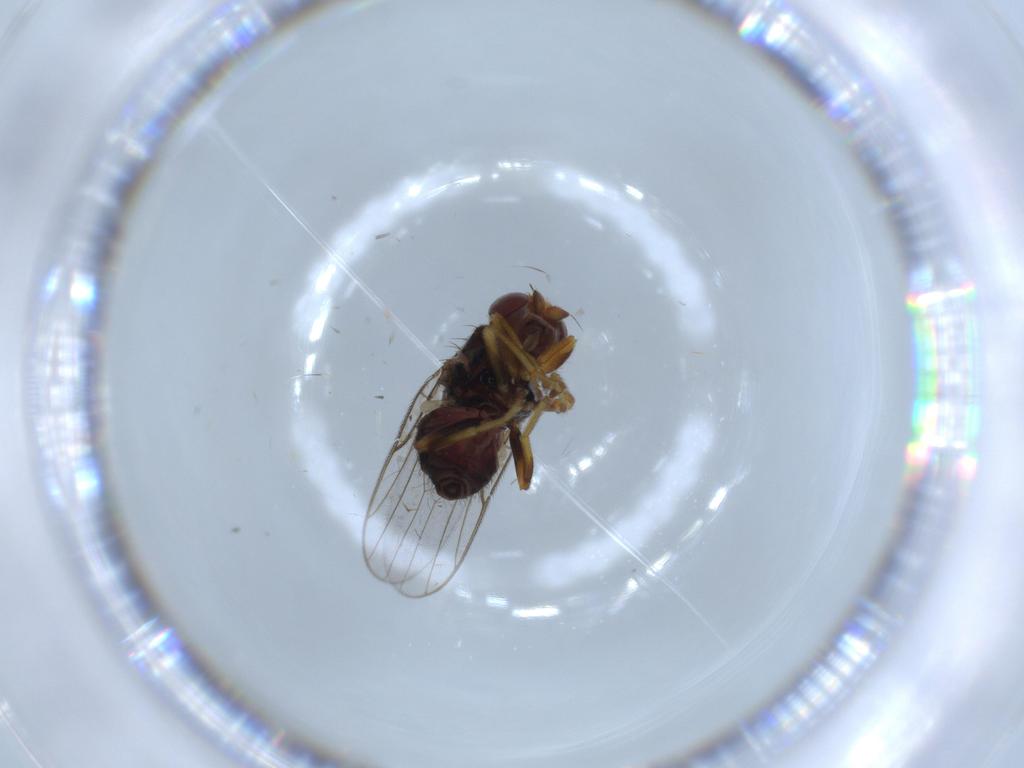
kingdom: Animalia
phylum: Arthropoda
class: Insecta
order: Diptera
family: Chloropidae
